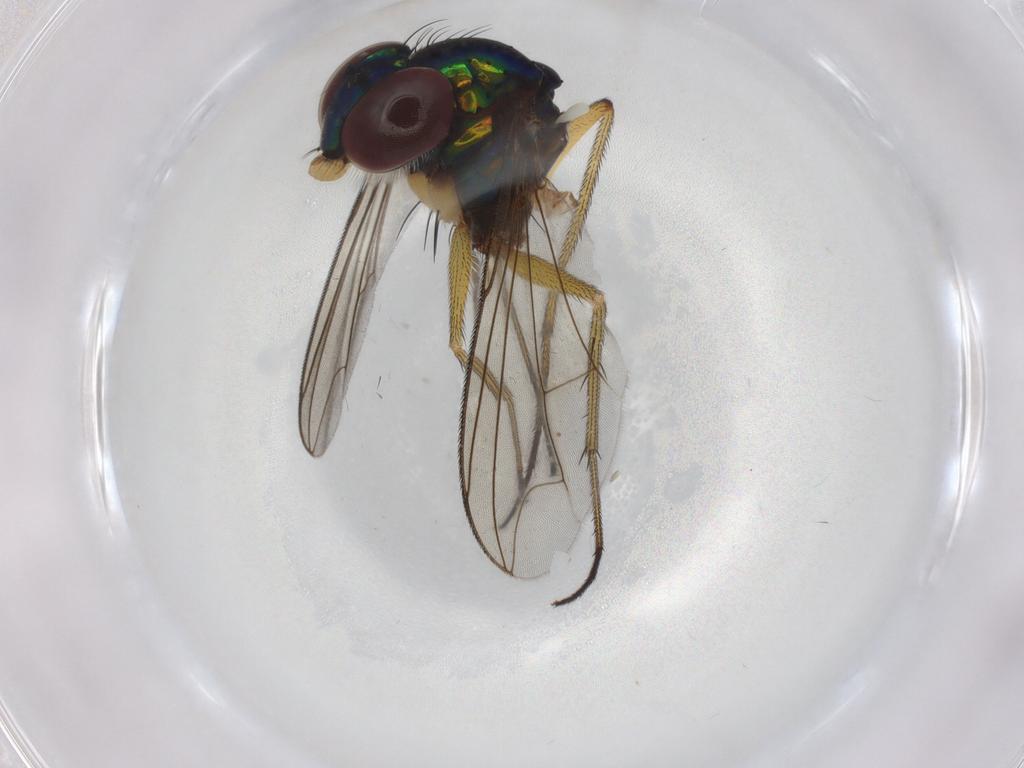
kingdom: Animalia
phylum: Arthropoda
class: Insecta
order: Diptera
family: Dolichopodidae
